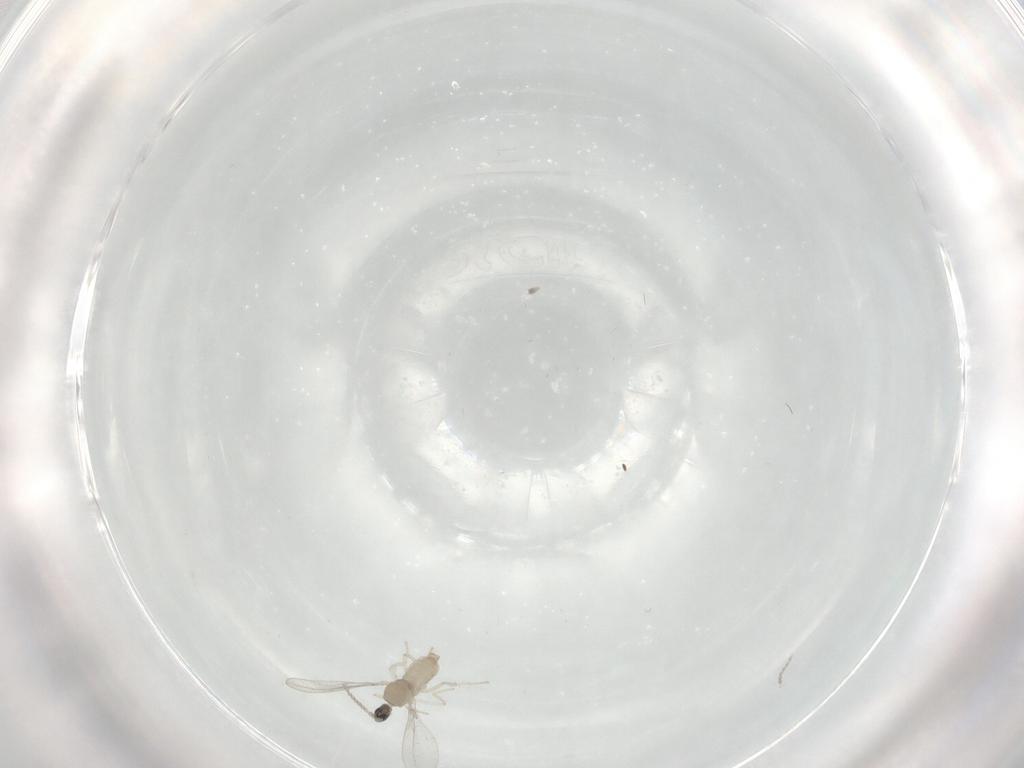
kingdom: Animalia
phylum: Arthropoda
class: Insecta
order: Diptera
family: Cecidomyiidae
